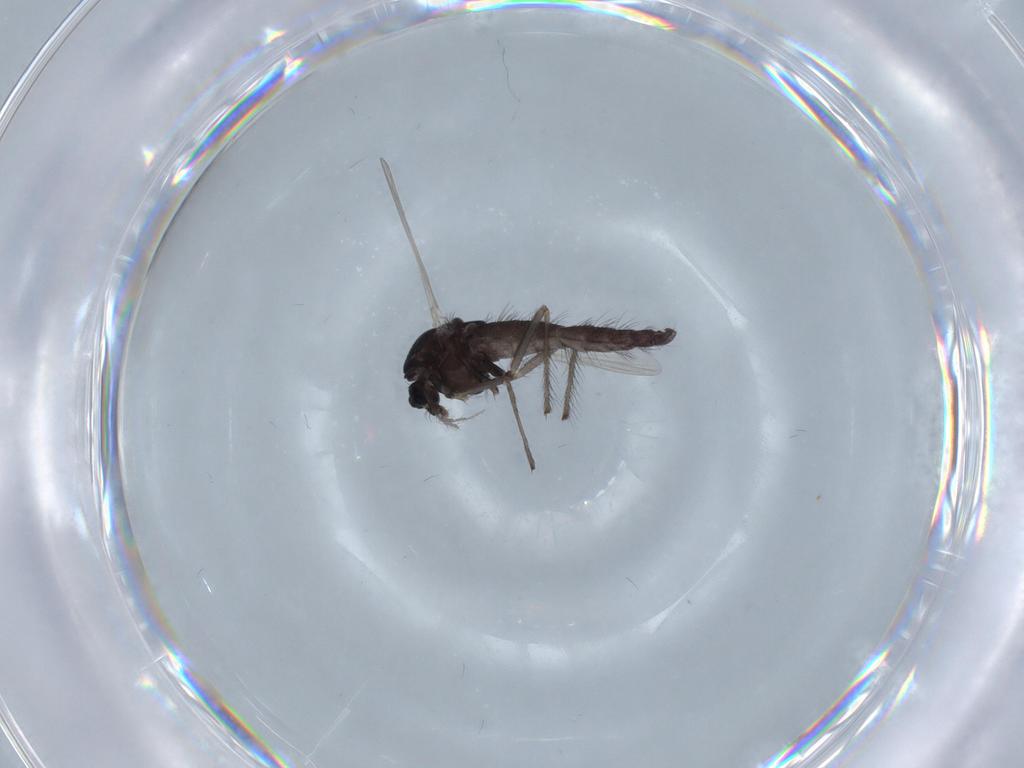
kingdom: Animalia
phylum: Arthropoda
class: Insecta
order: Diptera
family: Chironomidae
